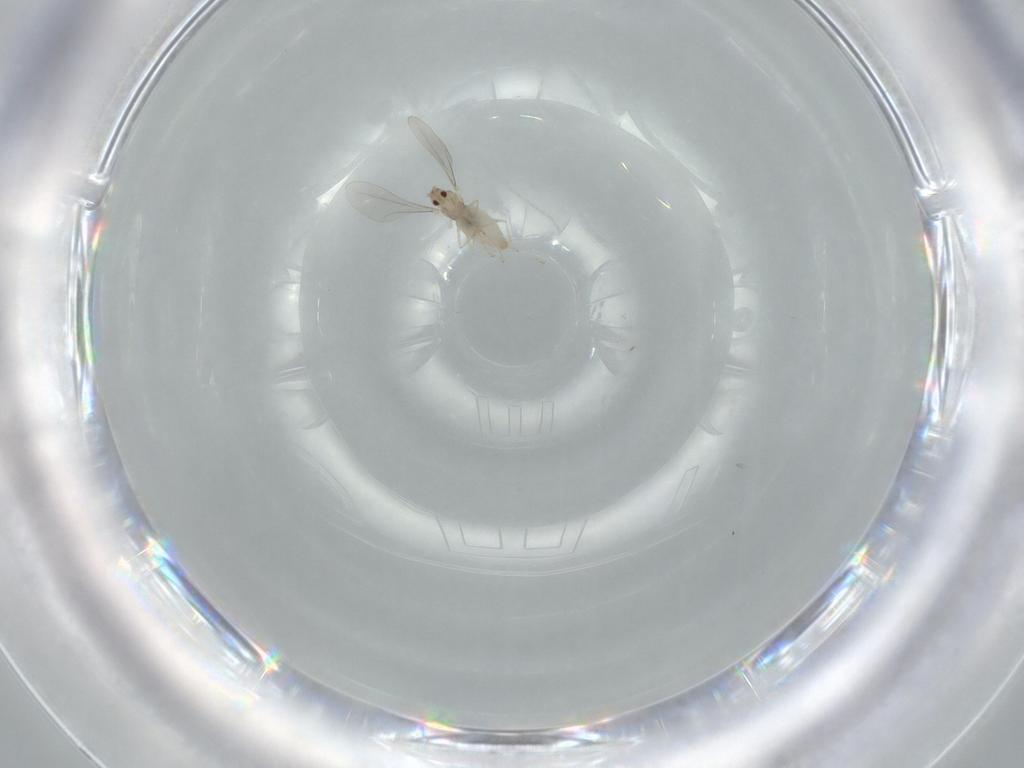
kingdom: Animalia
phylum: Arthropoda
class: Insecta
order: Diptera
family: Cecidomyiidae
